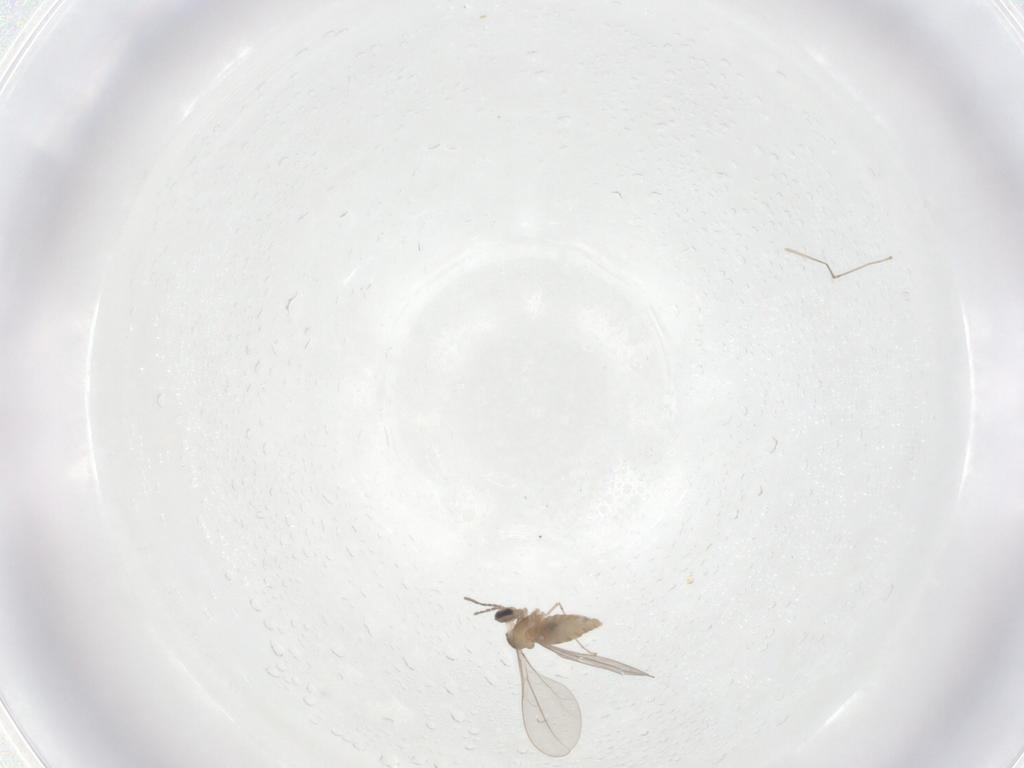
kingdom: Animalia
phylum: Arthropoda
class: Insecta
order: Diptera
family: Cecidomyiidae
